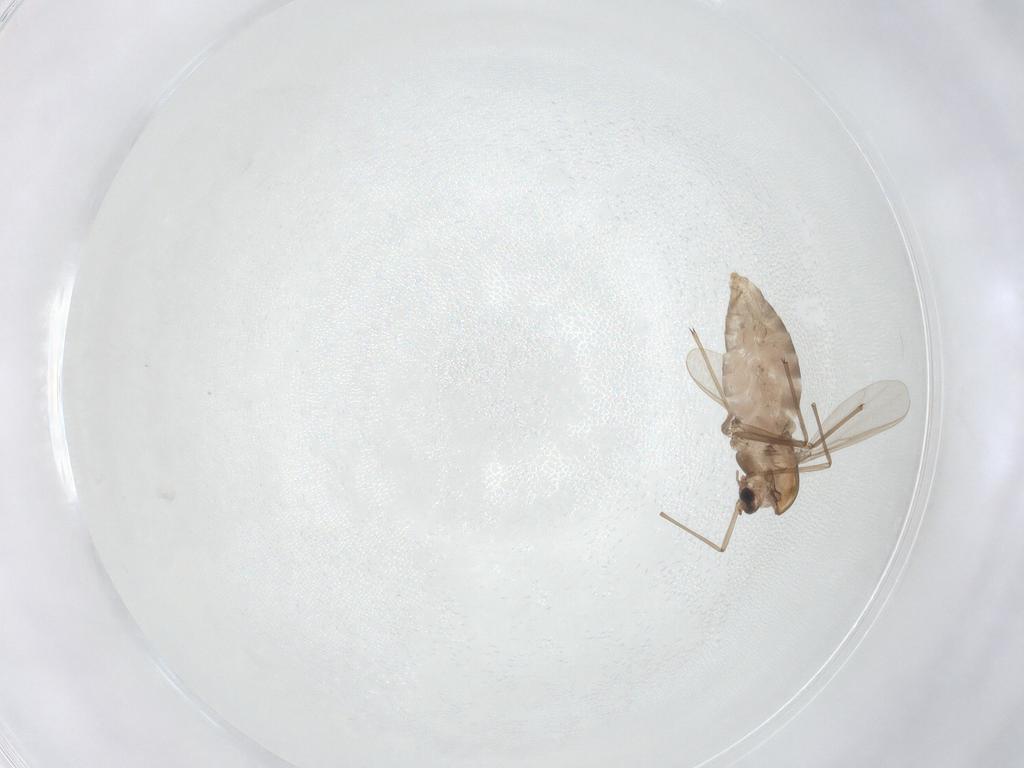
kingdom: Animalia
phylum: Arthropoda
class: Insecta
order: Diptera
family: Chironomidae
